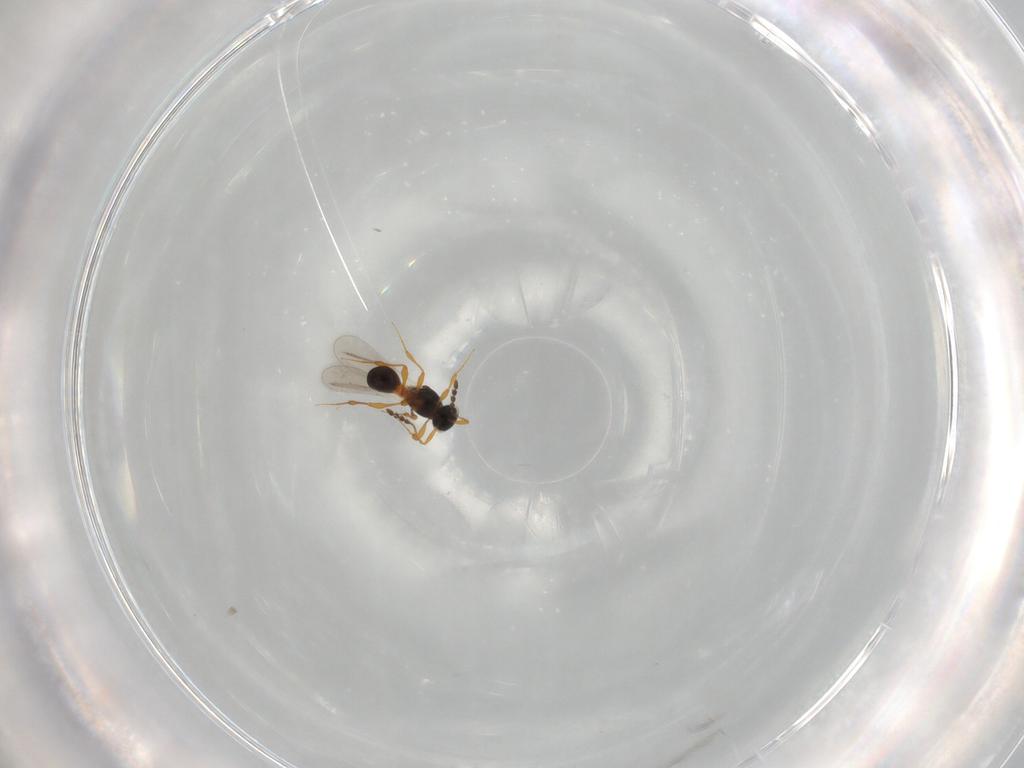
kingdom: Animalia
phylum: Arthropoda
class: Insecta
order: Hymenoptera
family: Platygastridae
